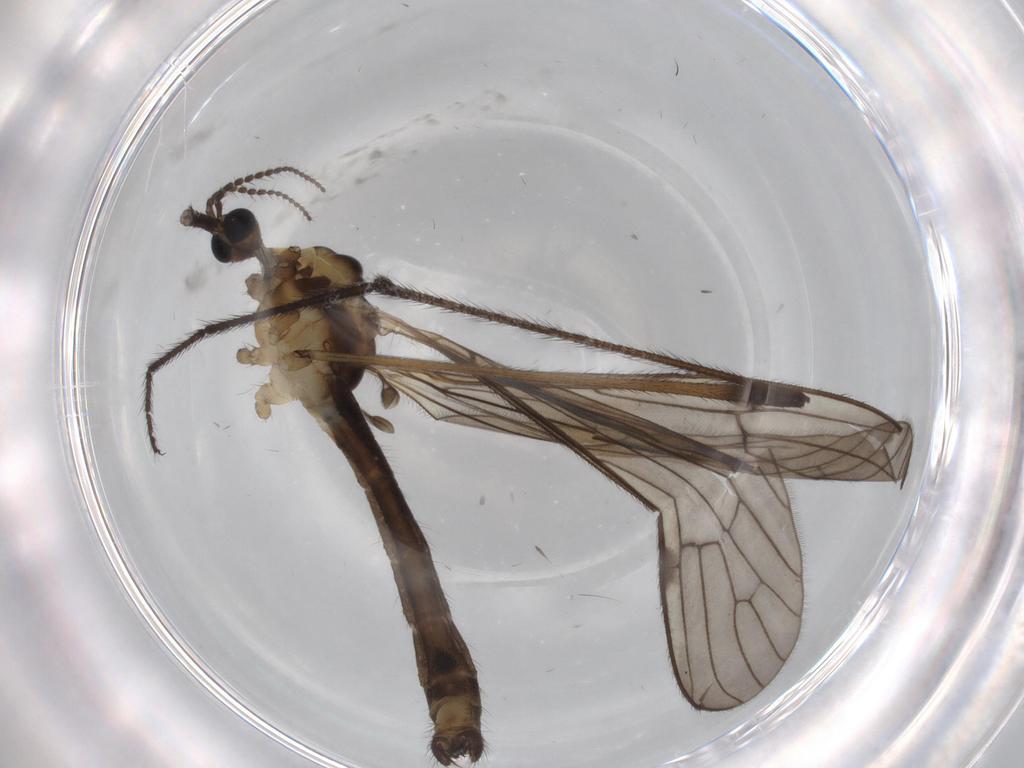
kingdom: Animalia
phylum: Arthropoda
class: Insecta
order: Diptera
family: Limoniidae
